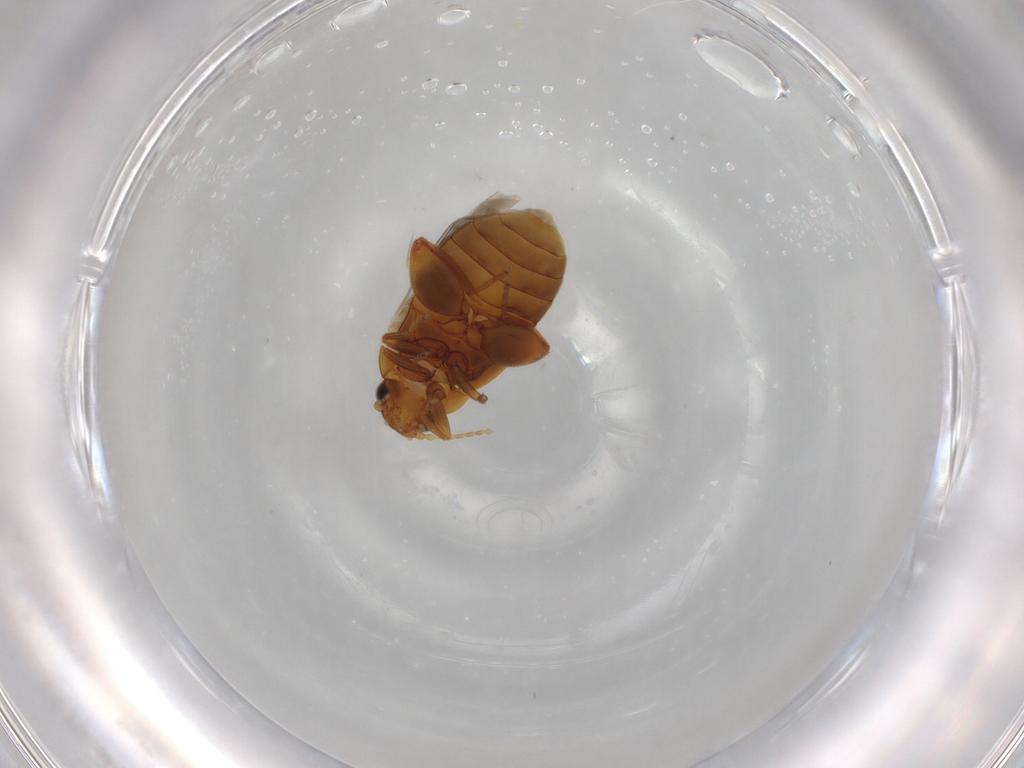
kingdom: Animalia
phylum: Arthropoda
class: Insecta
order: Coleoptera
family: Scirtidae
